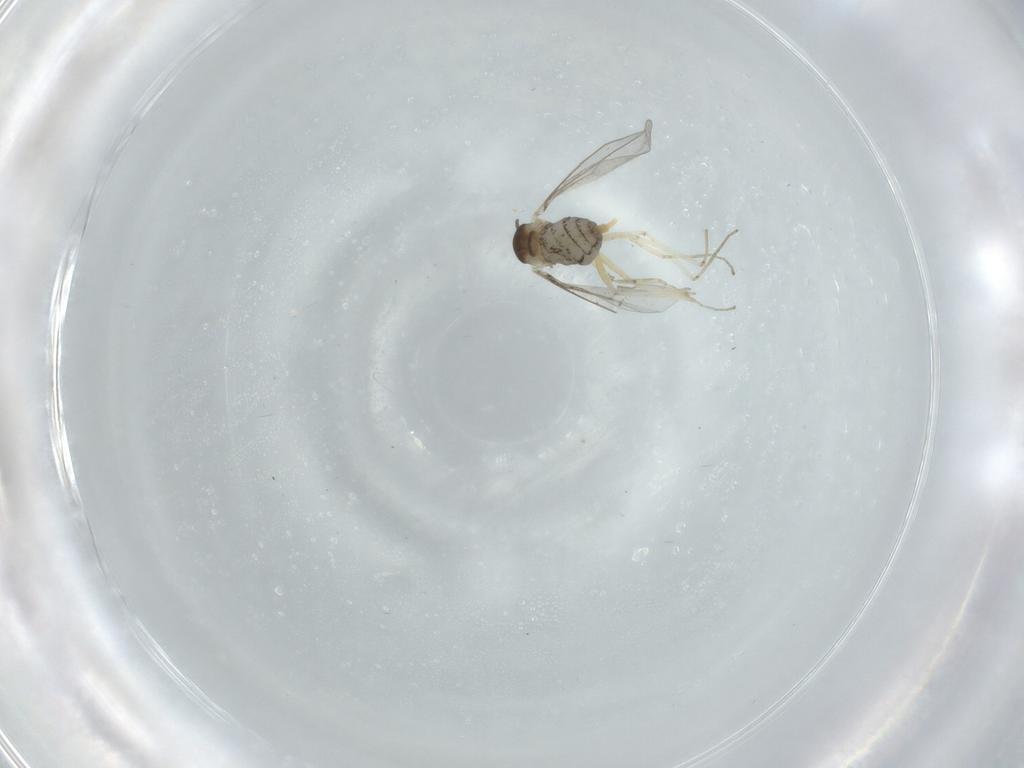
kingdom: Animalia
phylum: Arthropoda
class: Insecta
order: Diptera
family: Cecidomyiidae
